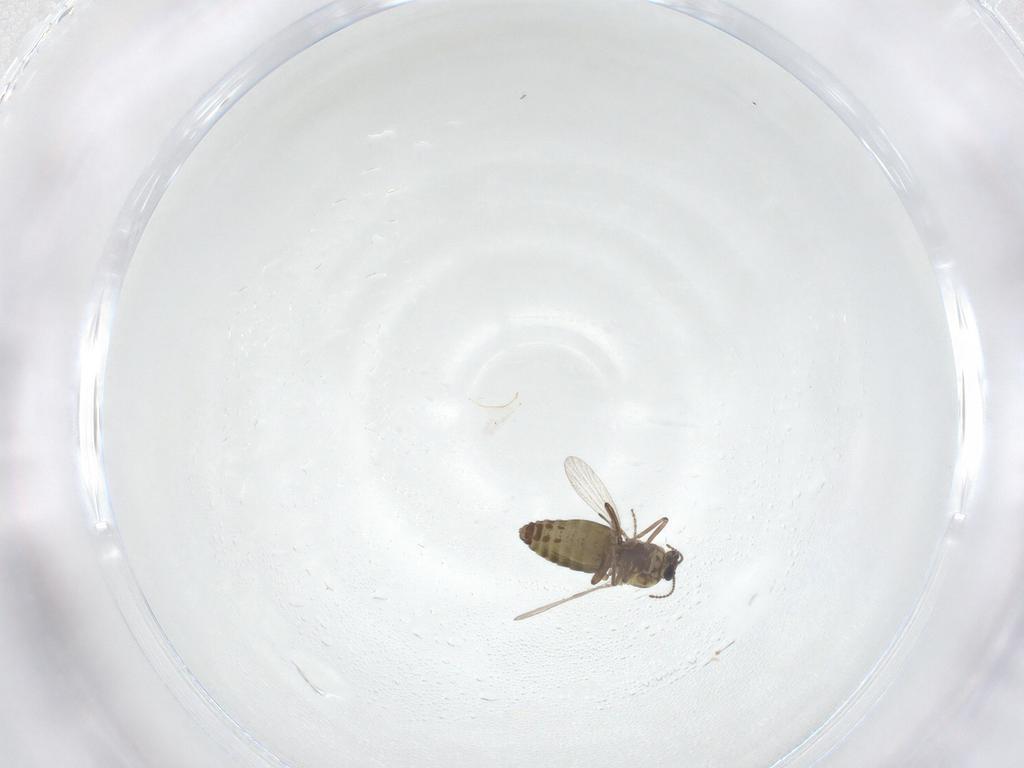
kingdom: Animalia
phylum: Arthropoda
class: Insecta
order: Diptera
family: Ceratopogonidae
